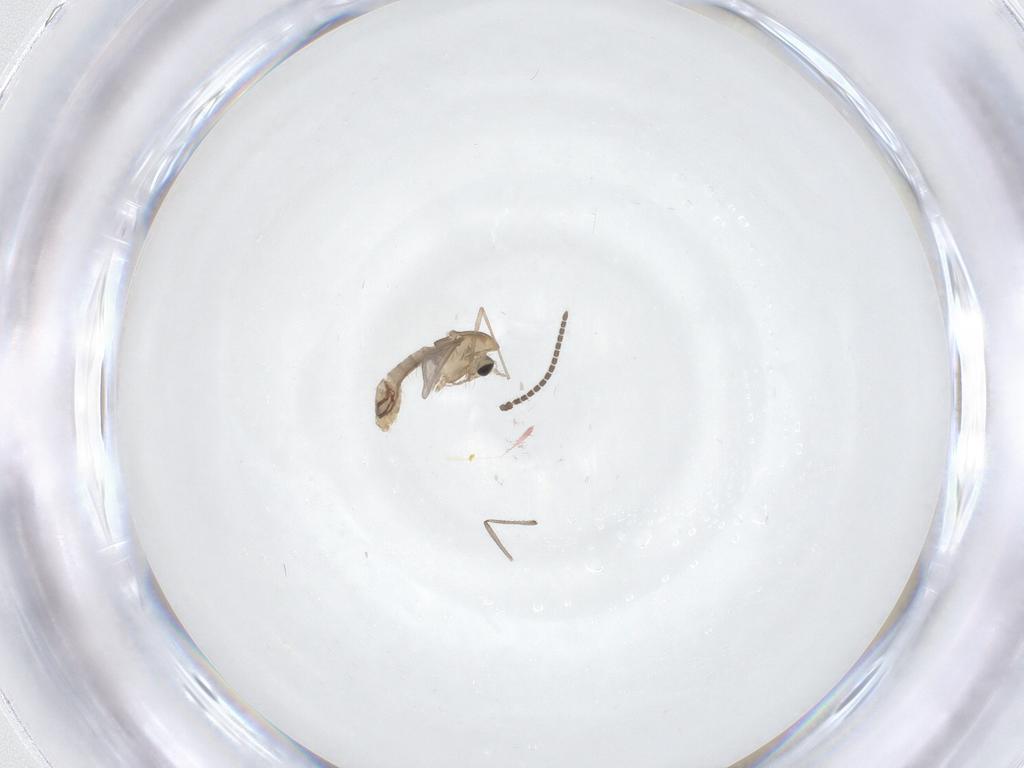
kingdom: Animalia
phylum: Arthropoda
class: Insecta
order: Diptera
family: Chironomidae
